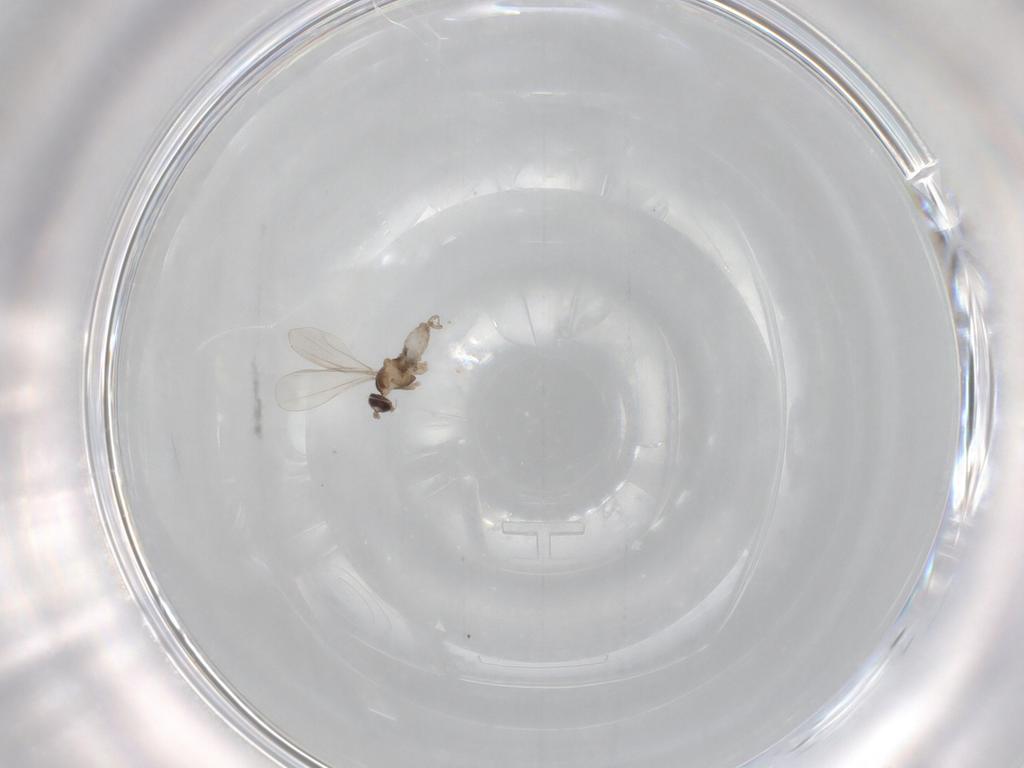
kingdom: Animalia
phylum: Arthropoda
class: Insecta
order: Diptera
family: Cecidomyiidae
